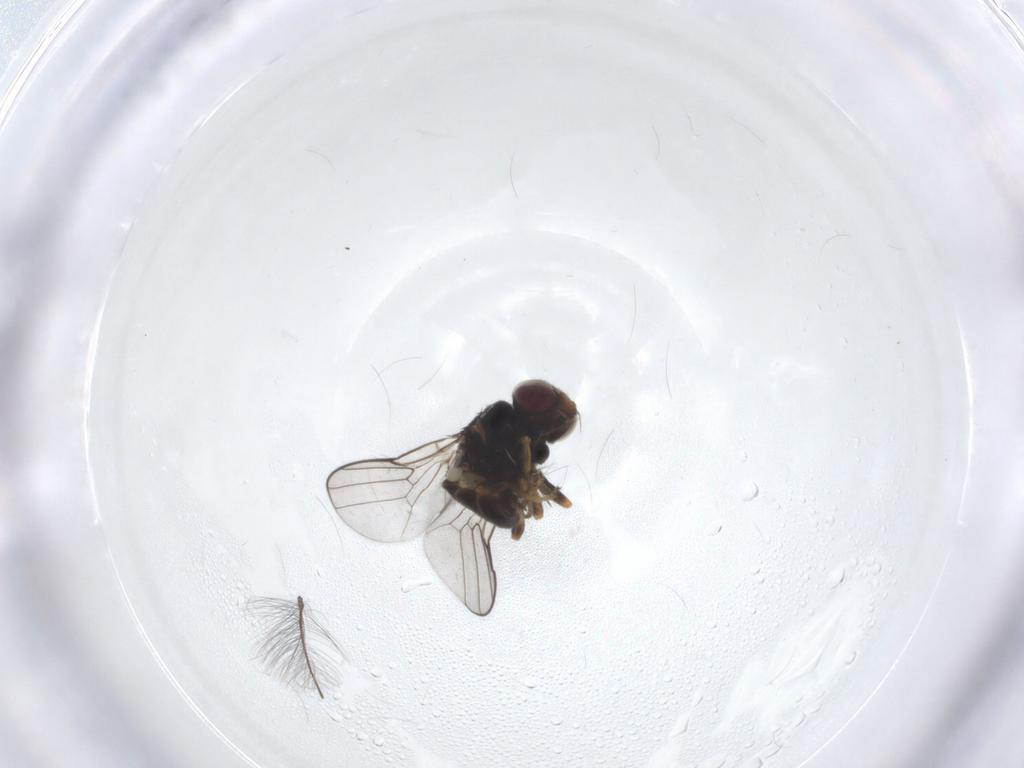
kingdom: Animalia
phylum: Arthropoda
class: Insecta
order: Diptera
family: Chloropidae
